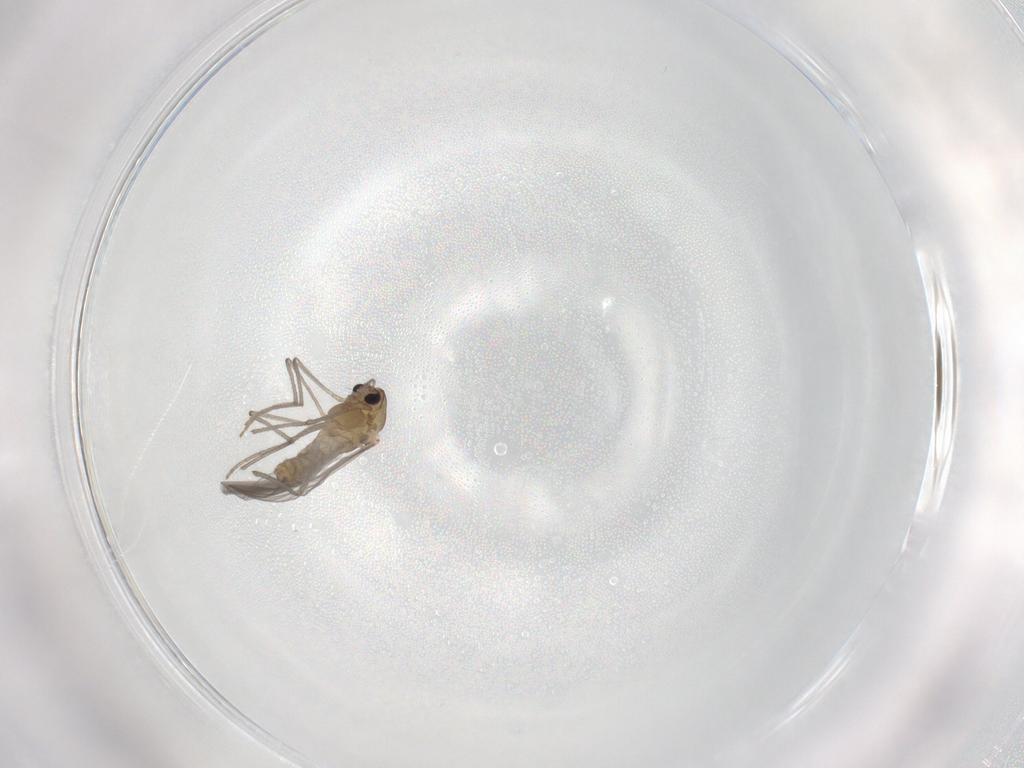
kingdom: Animalia
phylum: Arthropoda
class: Insecta
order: Diptera
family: Chironomidae
